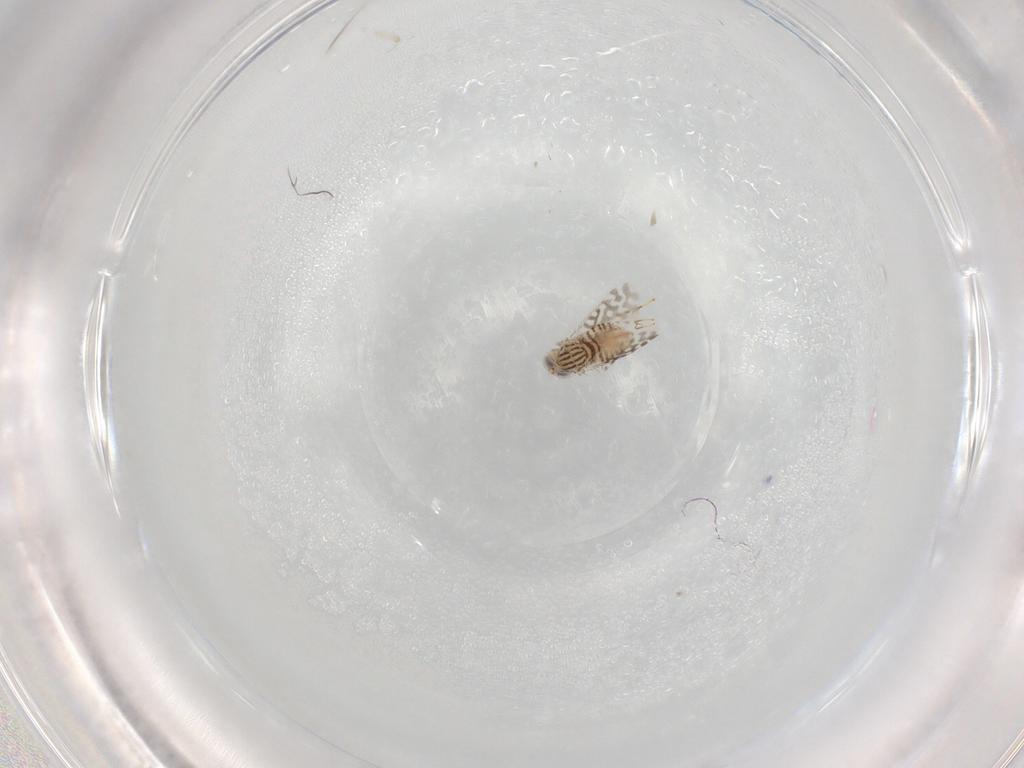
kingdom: Animalia
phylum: Arthropoda
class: Insecta
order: Hymenoptera
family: Aphelinidae
